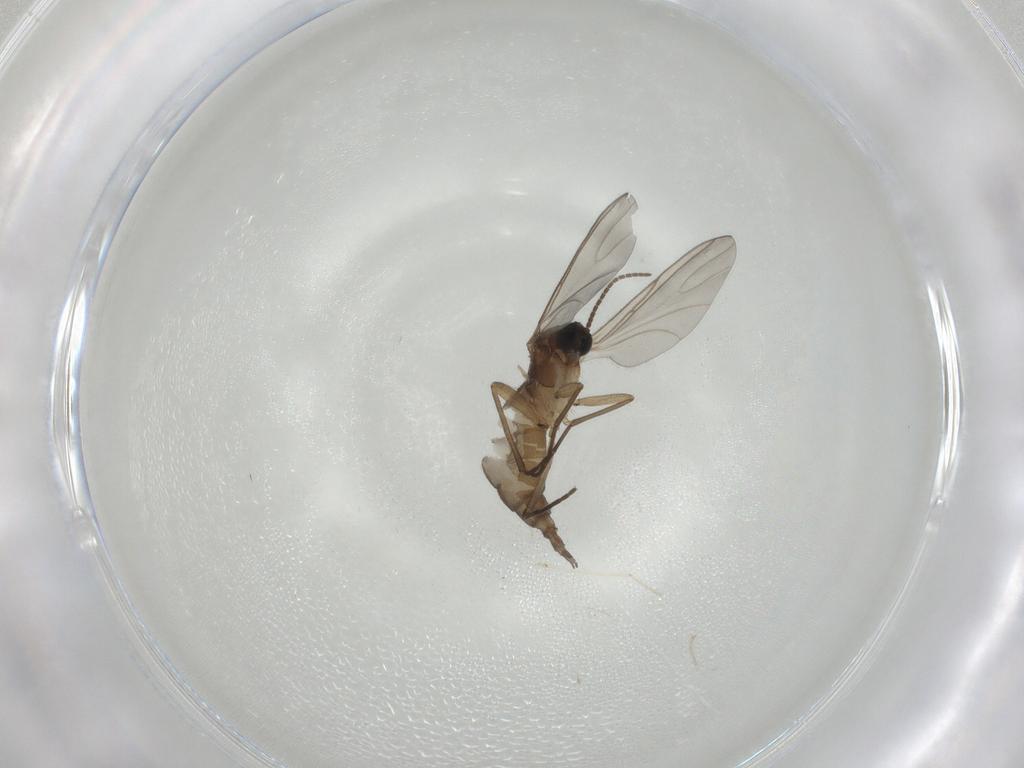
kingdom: Animalia
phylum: Arthropoda
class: Insecta
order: Diptera
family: Sciaridae
